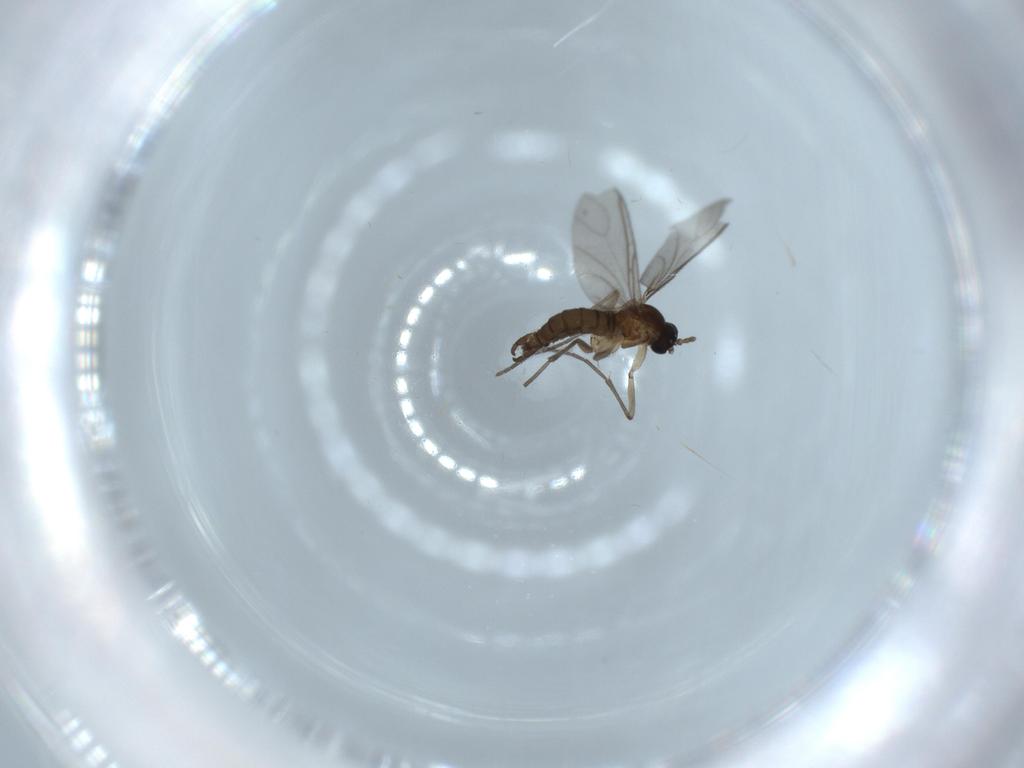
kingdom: Animalia
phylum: Arthropoda
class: Insecta
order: Diptera
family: Sciaridae
